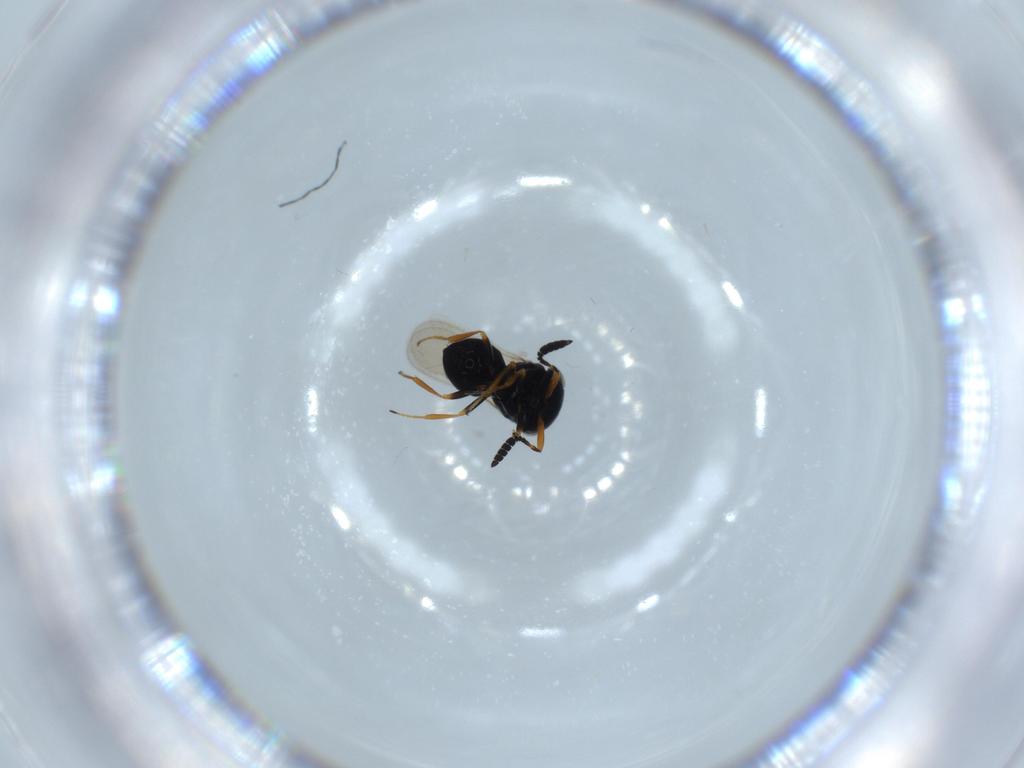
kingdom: Animalia
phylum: Arthropoda
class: Insecta
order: Hymenoptera
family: Scelionidae
